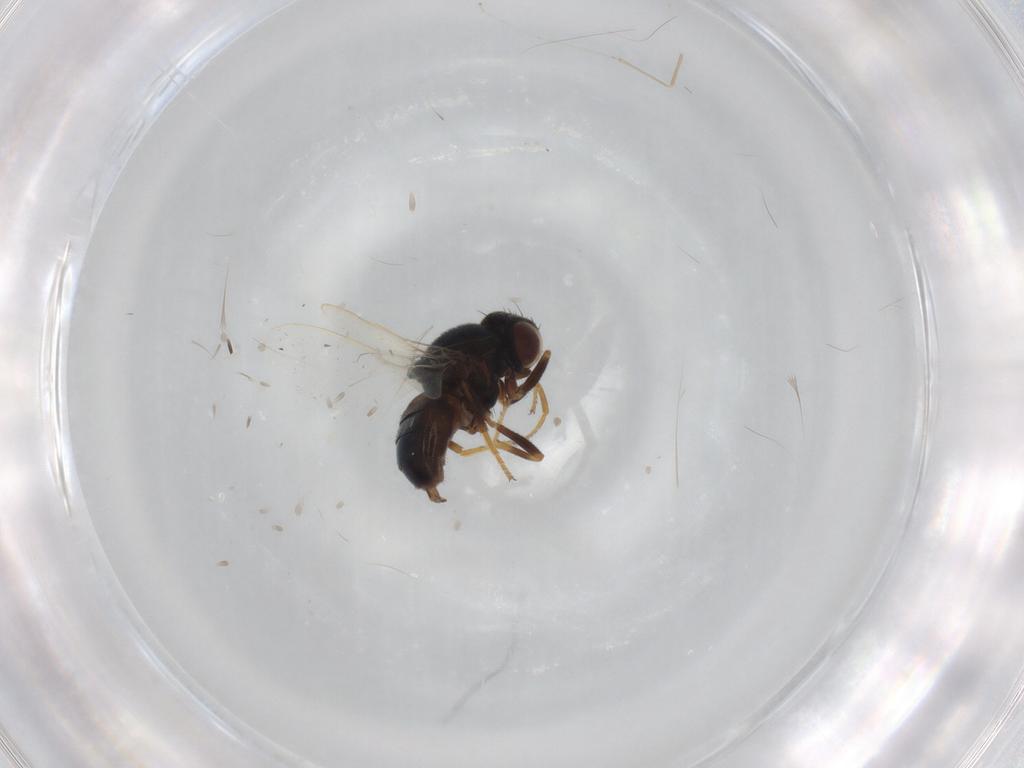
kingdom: Animalia
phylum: Arthropoda
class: Insecta
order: Diptera
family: Chloropidae
